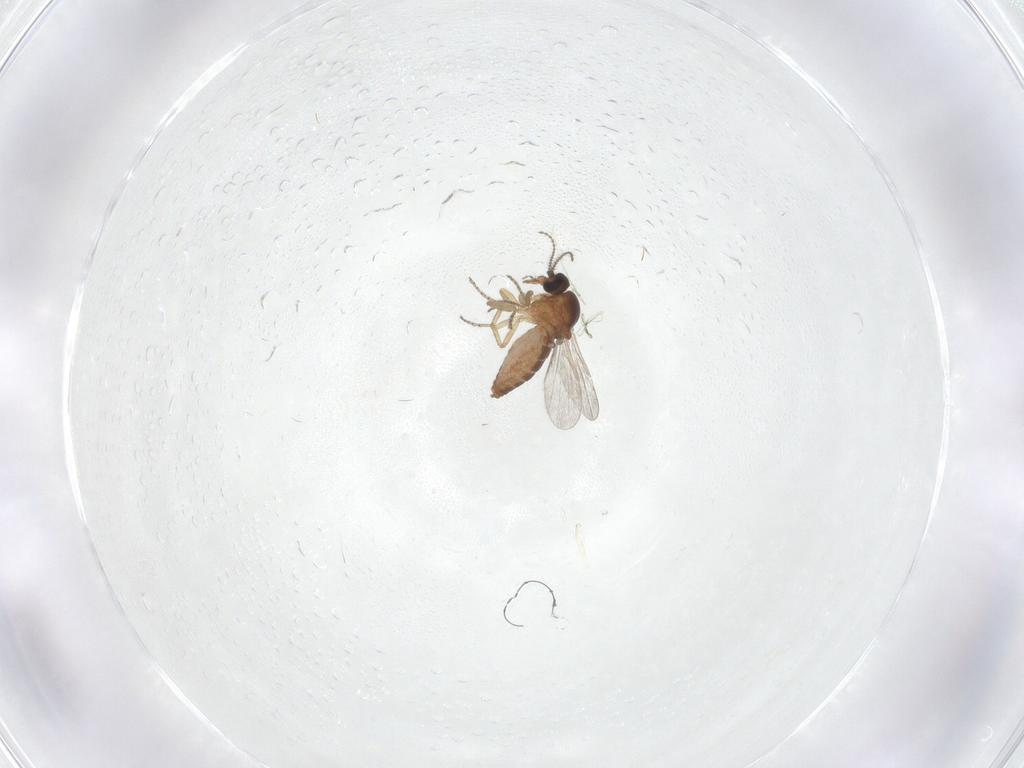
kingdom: Animalia
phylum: Arthropoda
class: Insecta
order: Diptera
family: Ceratopogonidae
